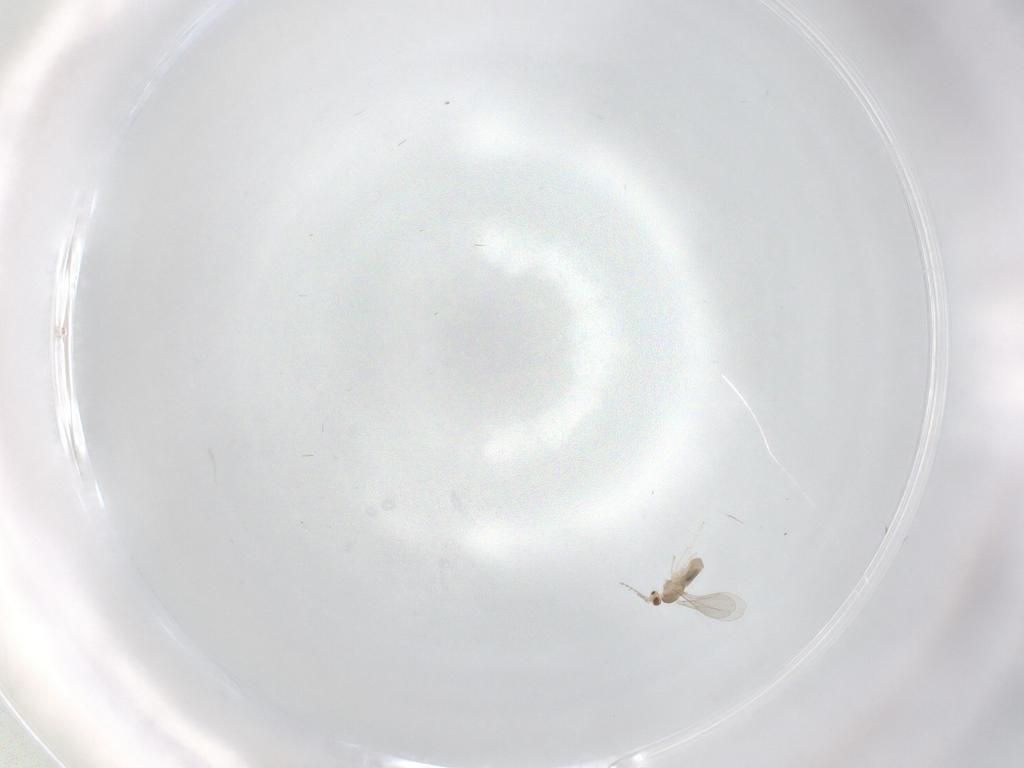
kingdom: Animalia
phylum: Arthropoda
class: Insecta
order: Diptera
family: Cecidomyiidae
